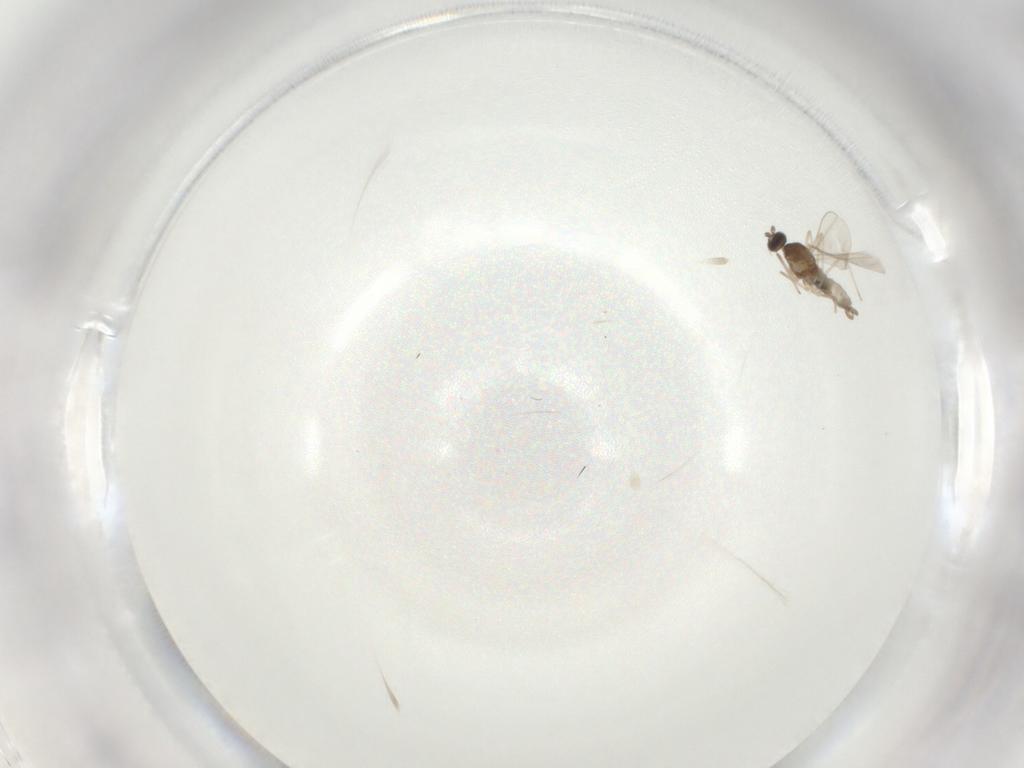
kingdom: Animalia
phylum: Arthropoda
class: Insecta
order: Diptera
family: Cecidomyiidae
